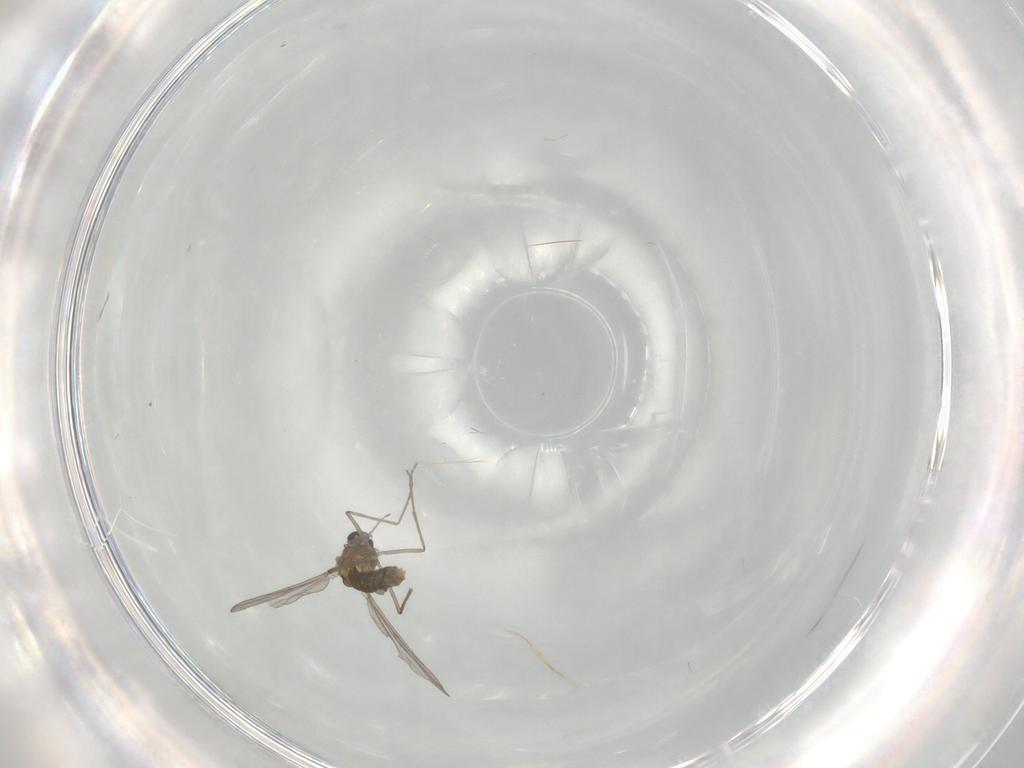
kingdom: Animalia
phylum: Arthropoda
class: Insecta
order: Diptera
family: Chironomidae
